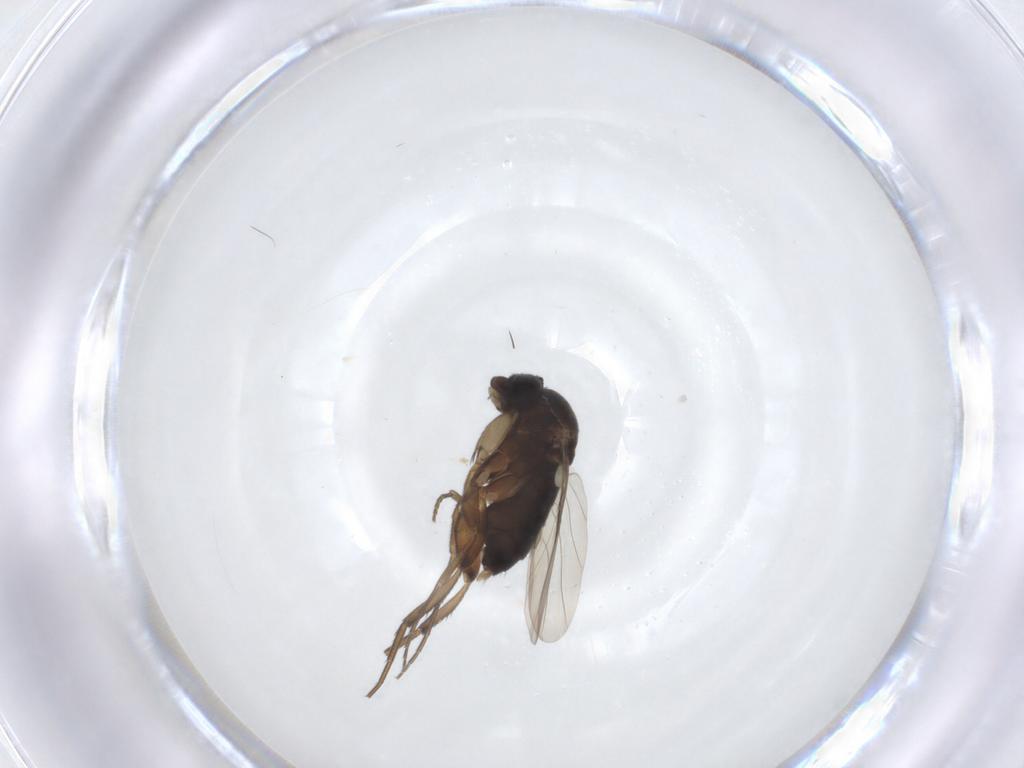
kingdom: Animalia
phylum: Arthropoda
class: Insecta
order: Diptera
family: Phoridae
